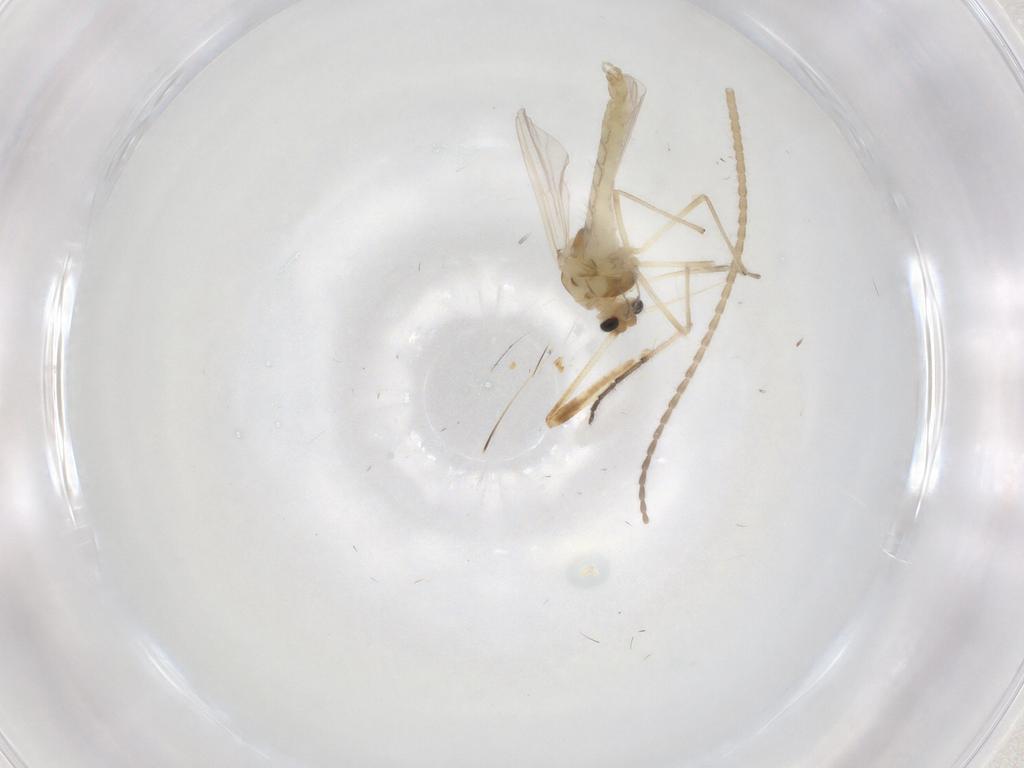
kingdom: Animalia
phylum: Arthropoda
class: Insecta
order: Diptera
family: Chironomidae
